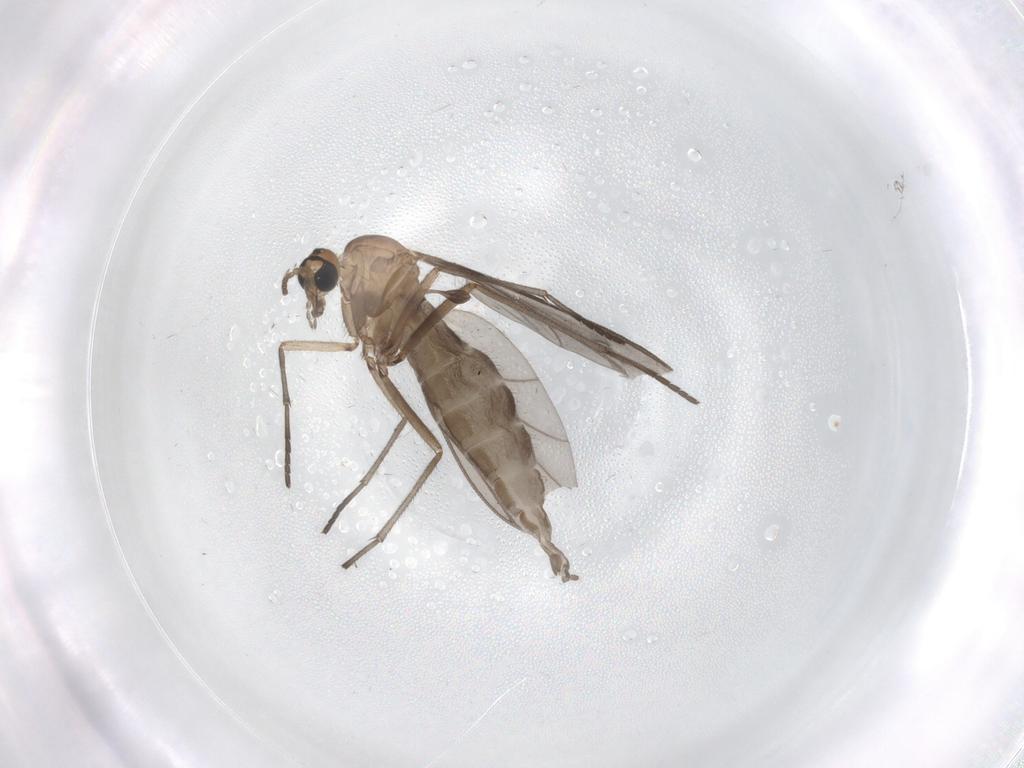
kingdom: Animalia
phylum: Arthropoda
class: Insecta
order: Diptera
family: Sciaridae
